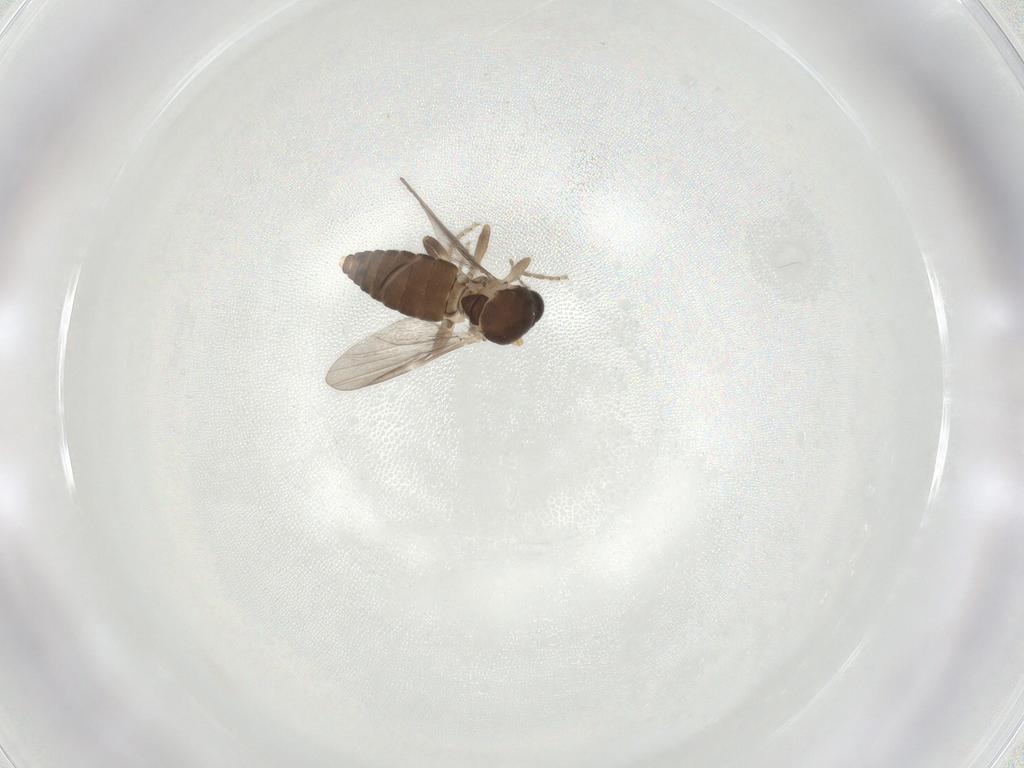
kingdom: Animalia
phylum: Arthropoda
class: Insecta
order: Diptera
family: Ceratopogonidae
